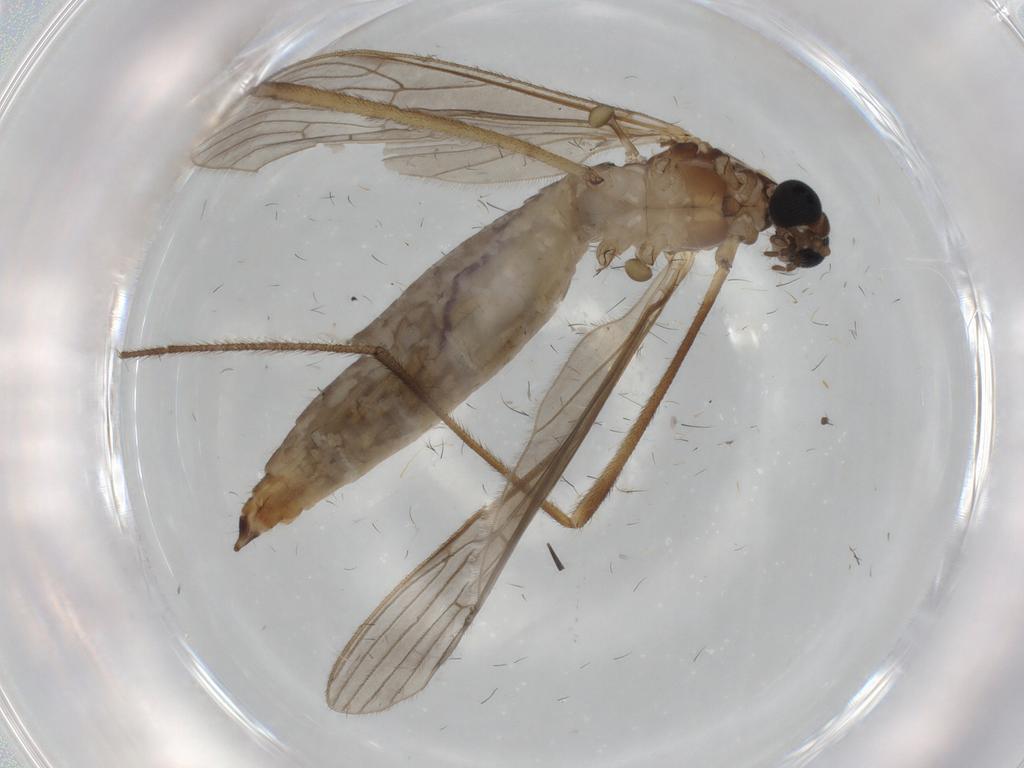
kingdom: Animalia
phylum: Arthropoda
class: Insecta
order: Diptera
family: Limoniidae
